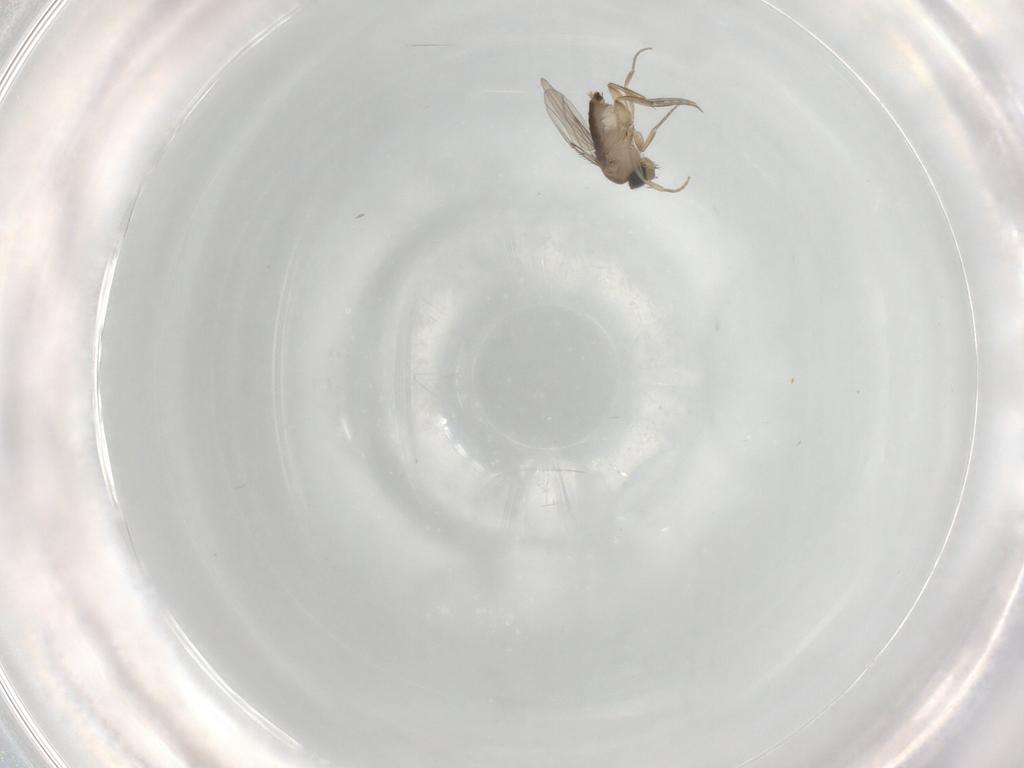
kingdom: Animalia
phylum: Arthropoda
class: Insecta
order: Diptera
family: Phoridae
